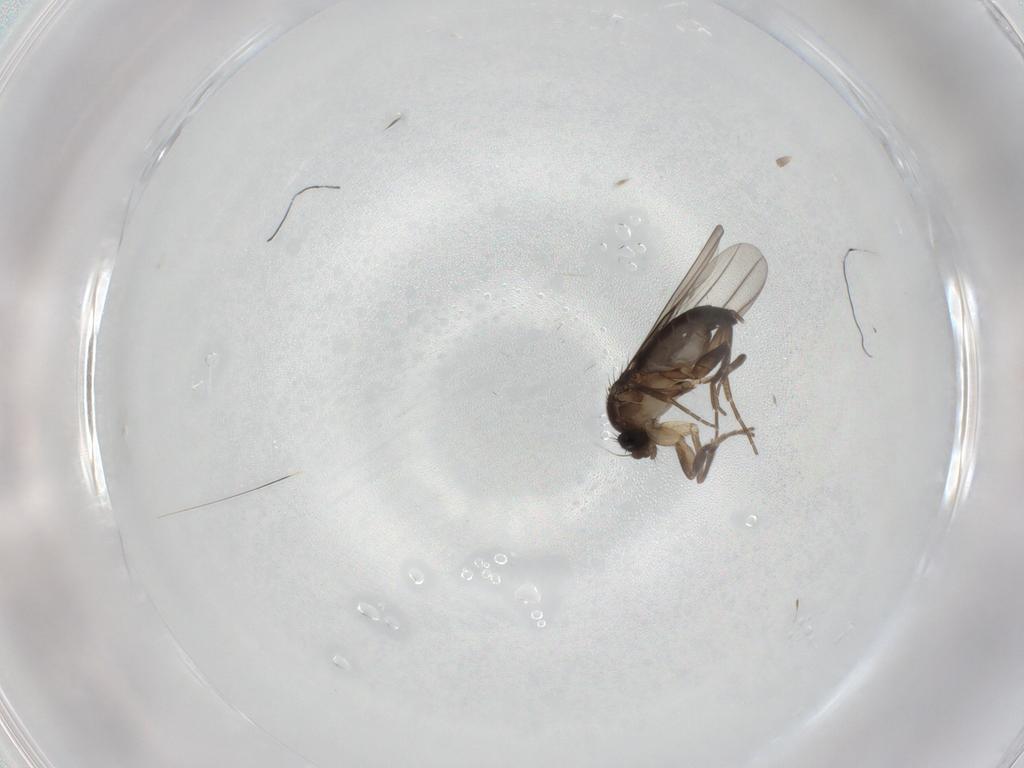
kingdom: Animalia
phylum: Arthropoda
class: Insecta
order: Diptera
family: Phoridae
